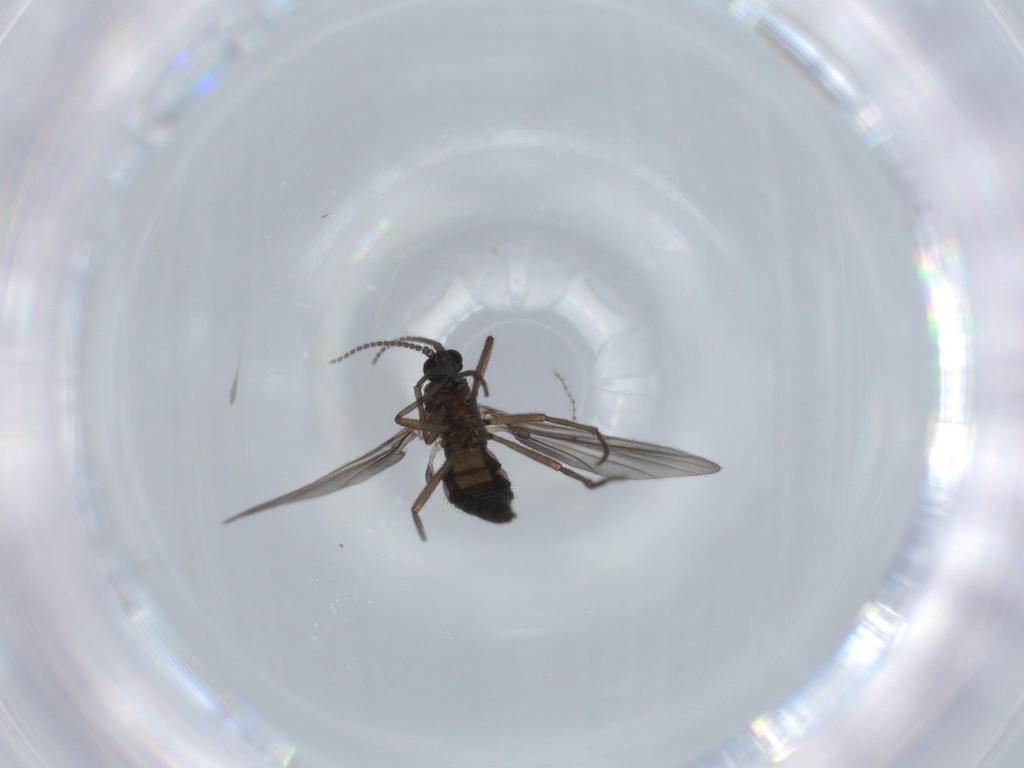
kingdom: Animalia
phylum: Arthropoda
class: Insecta
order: Diptera
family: Sciaridae
